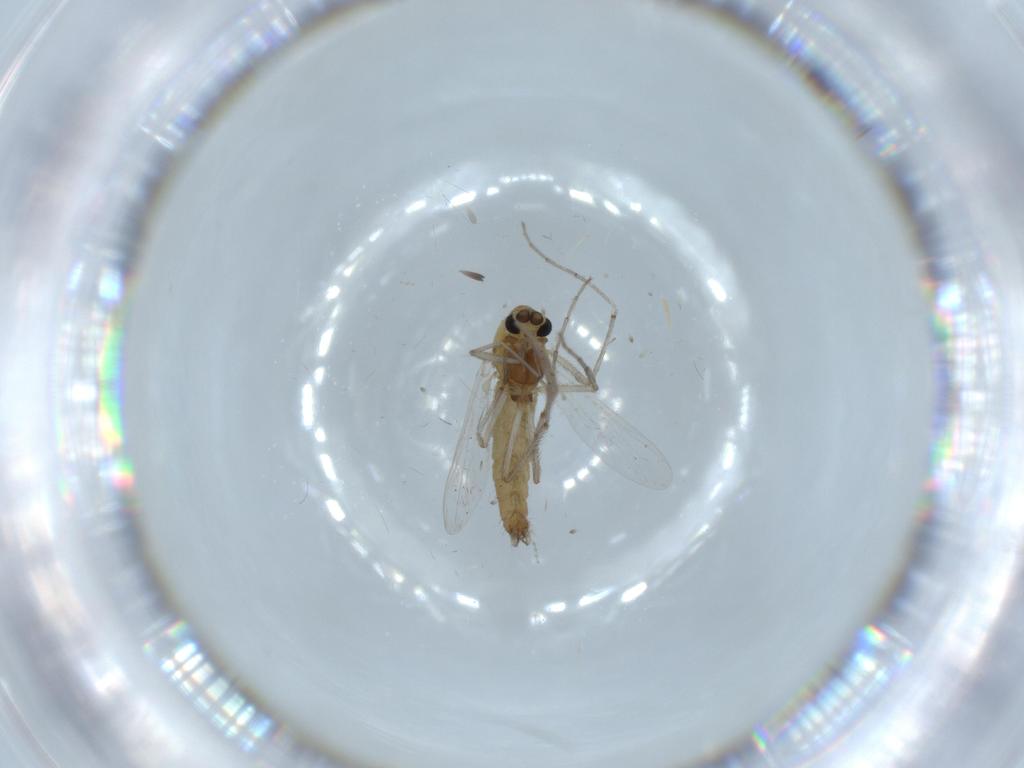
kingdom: Animalia
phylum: Arthropoda
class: Insecta
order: Diptera
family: Chironomidae
